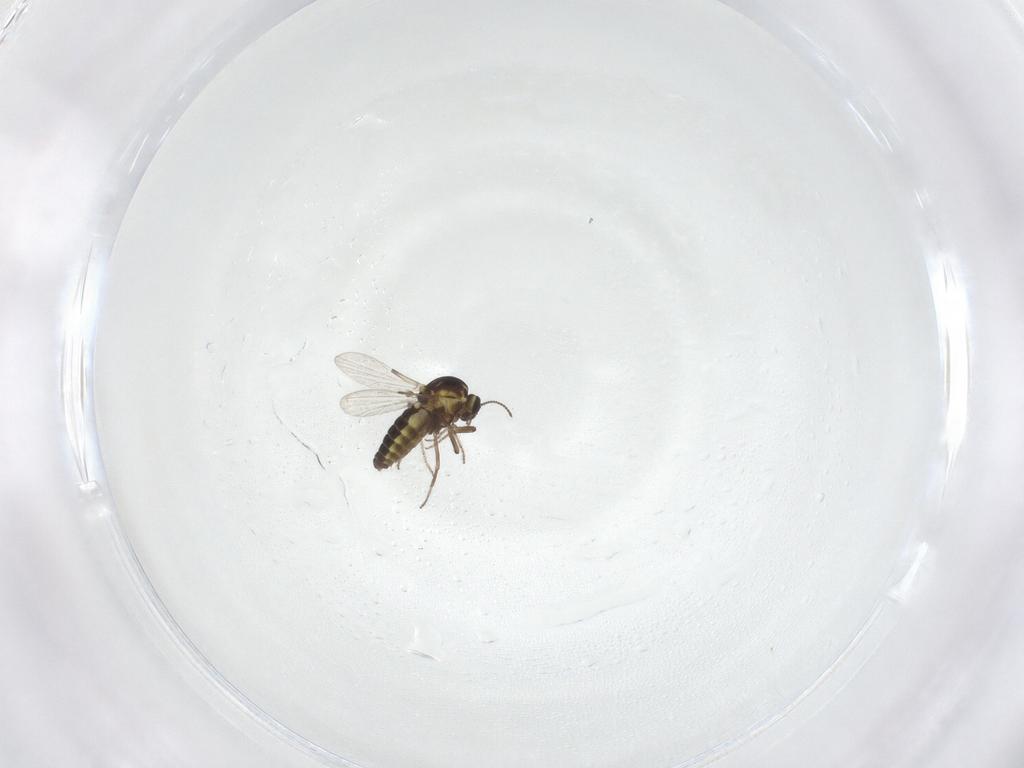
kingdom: Animalia
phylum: Arthropoda
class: Insecta
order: Diptera
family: Ceratopogonidae
